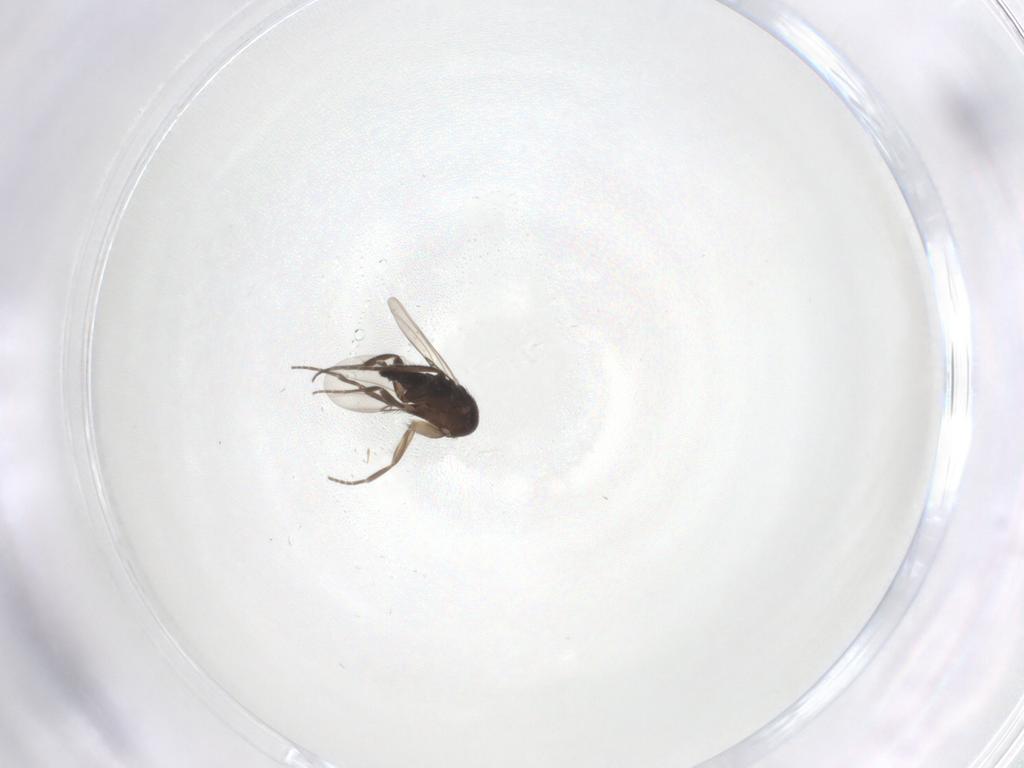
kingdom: Animalia
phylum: Arthropoda
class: Insecta
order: Diptera
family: Phoridae
